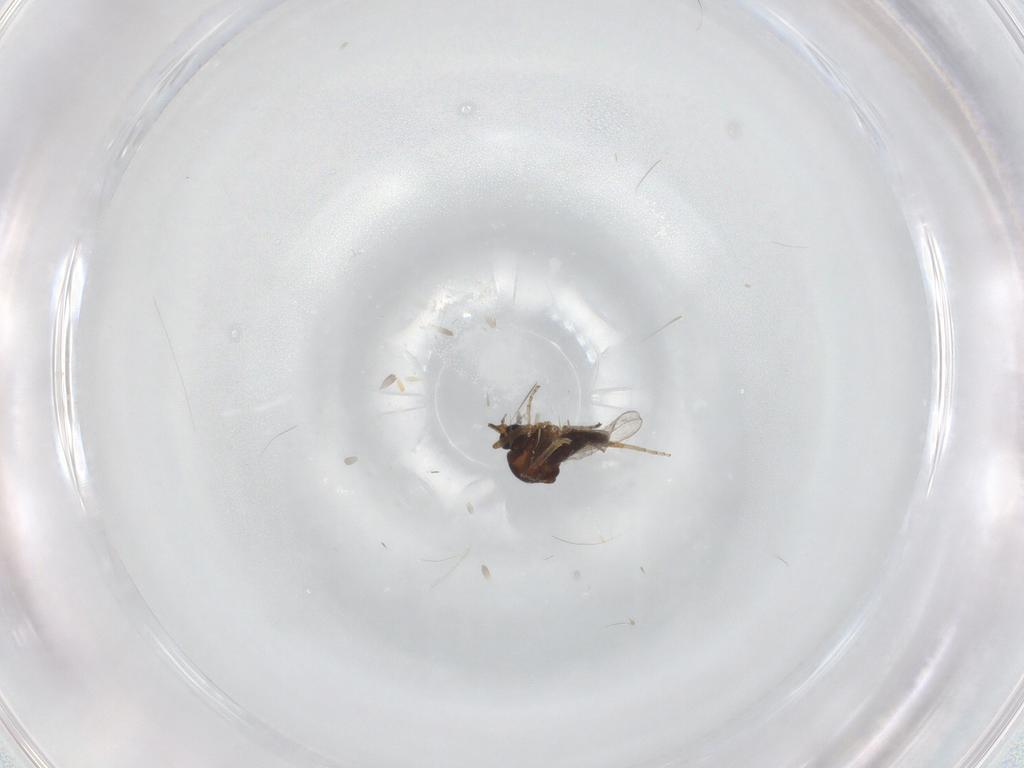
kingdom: Animalia
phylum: Arthropoda
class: Insecta
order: Diptera
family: Ceratopogonidae
